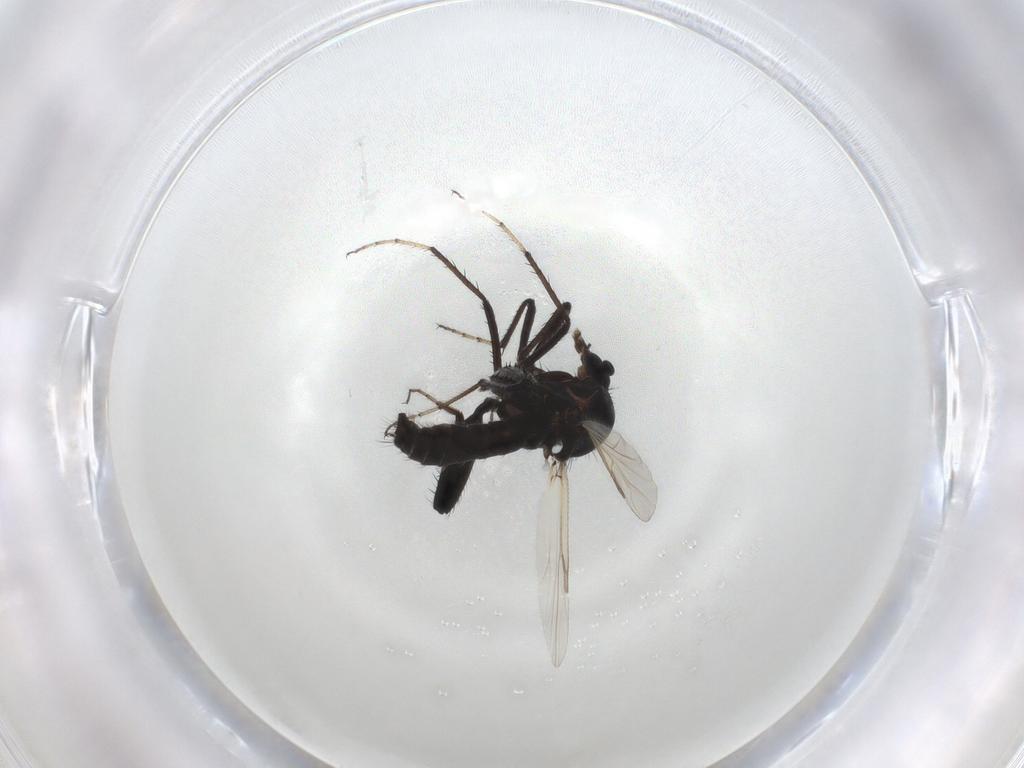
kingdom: Animalia
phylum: Arthropoda
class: Insecta
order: Diptera
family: Ceratopogonidae
